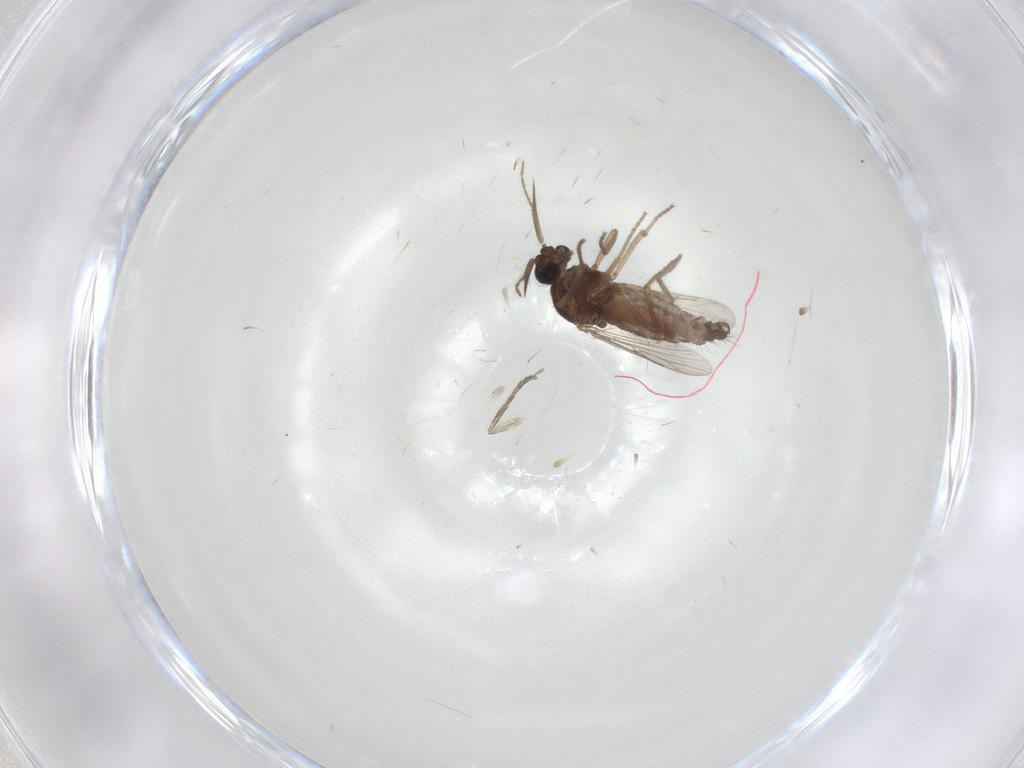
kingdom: Animalia
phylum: Arthropoda
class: Insecta
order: Diptera
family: Ceratopogonidae
